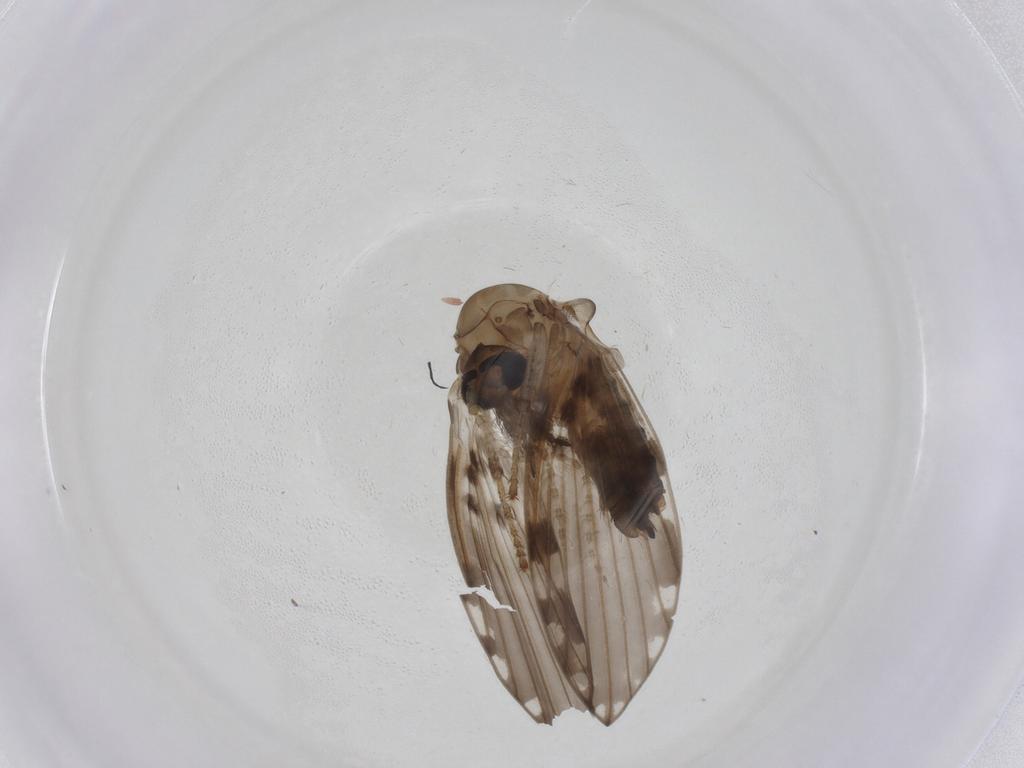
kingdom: Animalia
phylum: Arthropoda
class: Insecta
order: Diptera
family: Psychodidae
